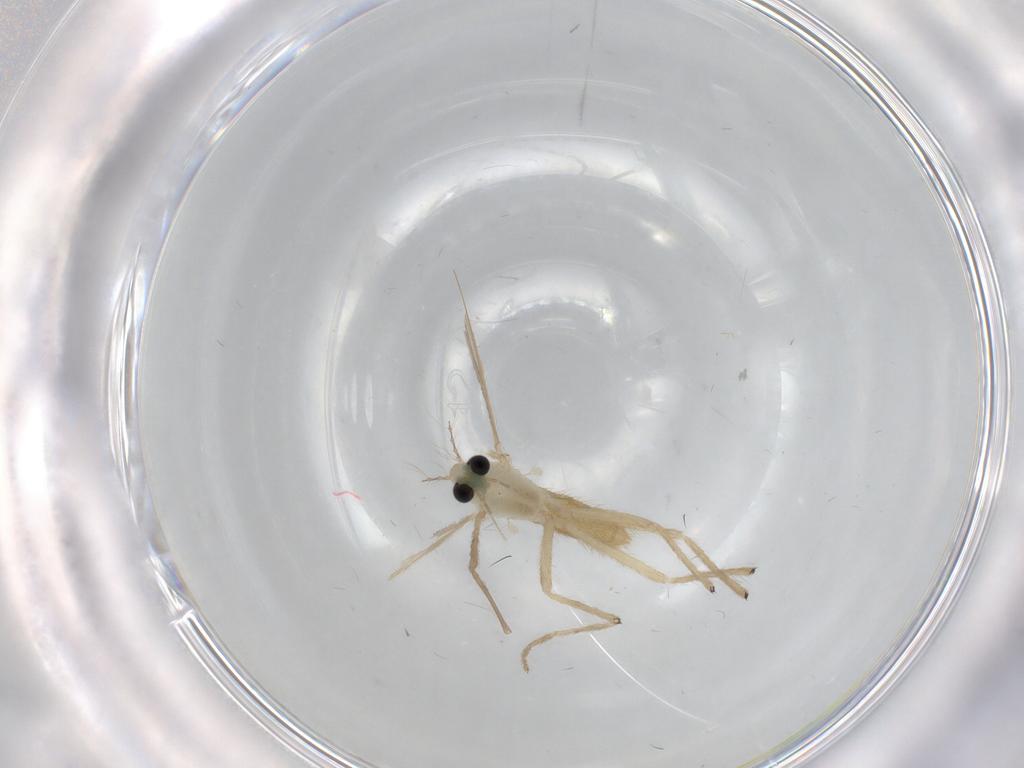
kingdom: Animalia
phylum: Arthropoda
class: Insecta
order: Diptera
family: Chironomidae
